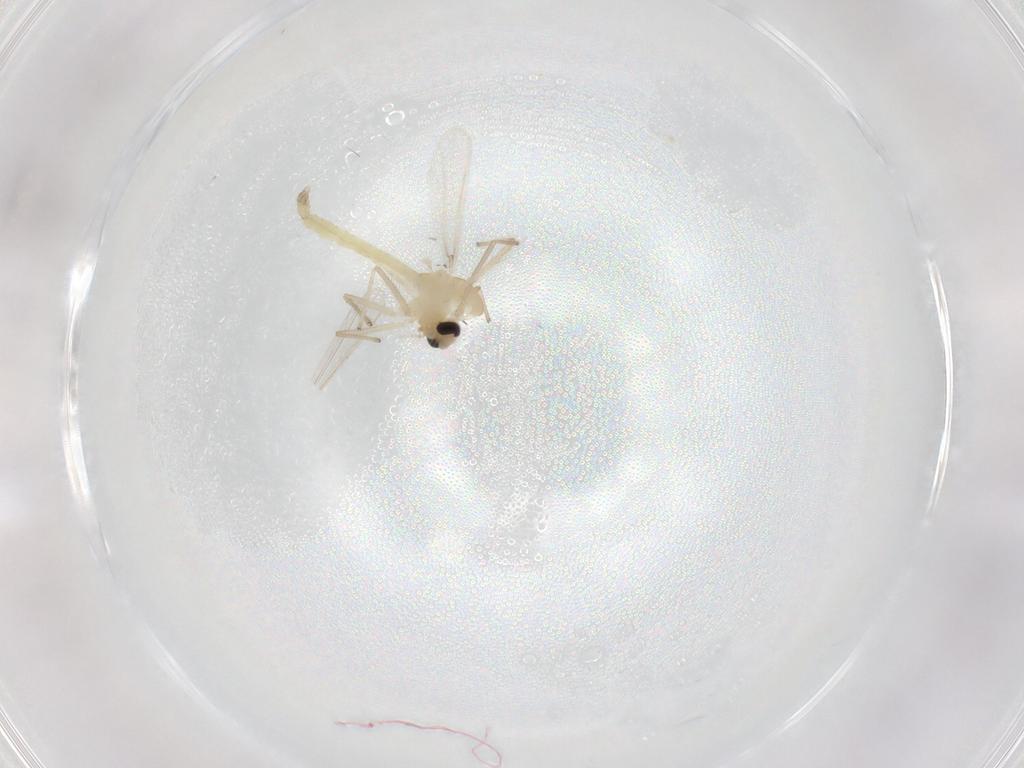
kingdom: Animalia
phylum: Arthropoda
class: Insecta
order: Diptera
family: Chironomidae
